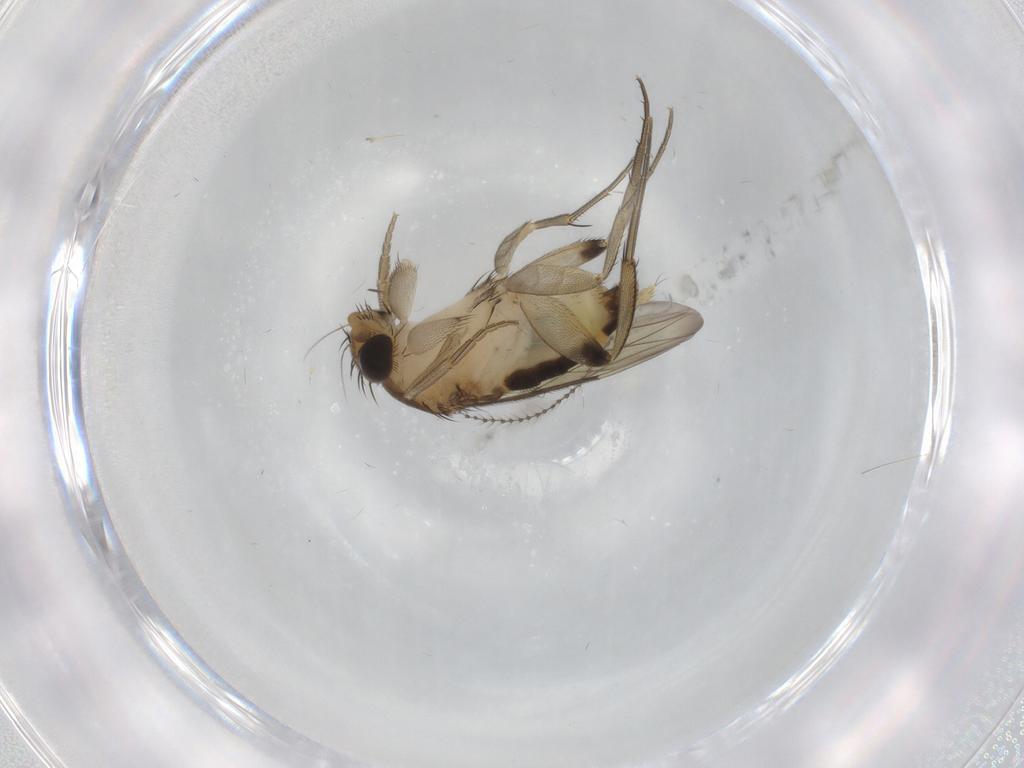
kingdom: Animalia
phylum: Arthropoda
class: Insecta
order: Diptera
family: Phoridae
